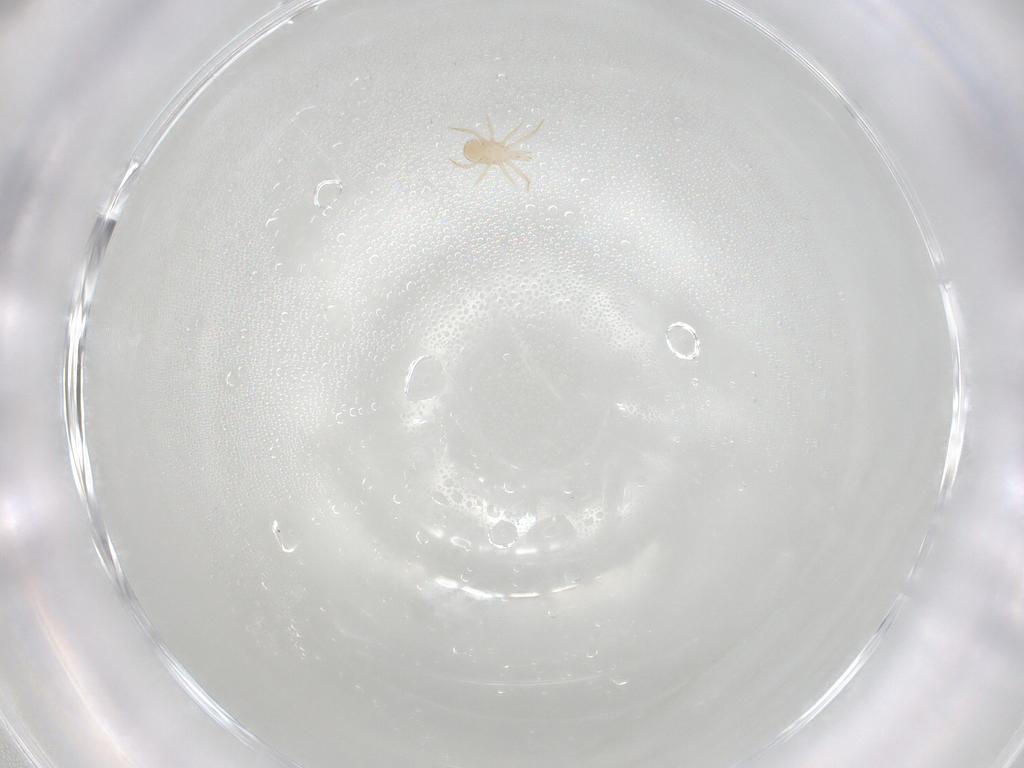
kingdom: Animalia
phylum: Arthropoda
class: Arachnida
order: Mesostigmata
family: Blattisociidae
